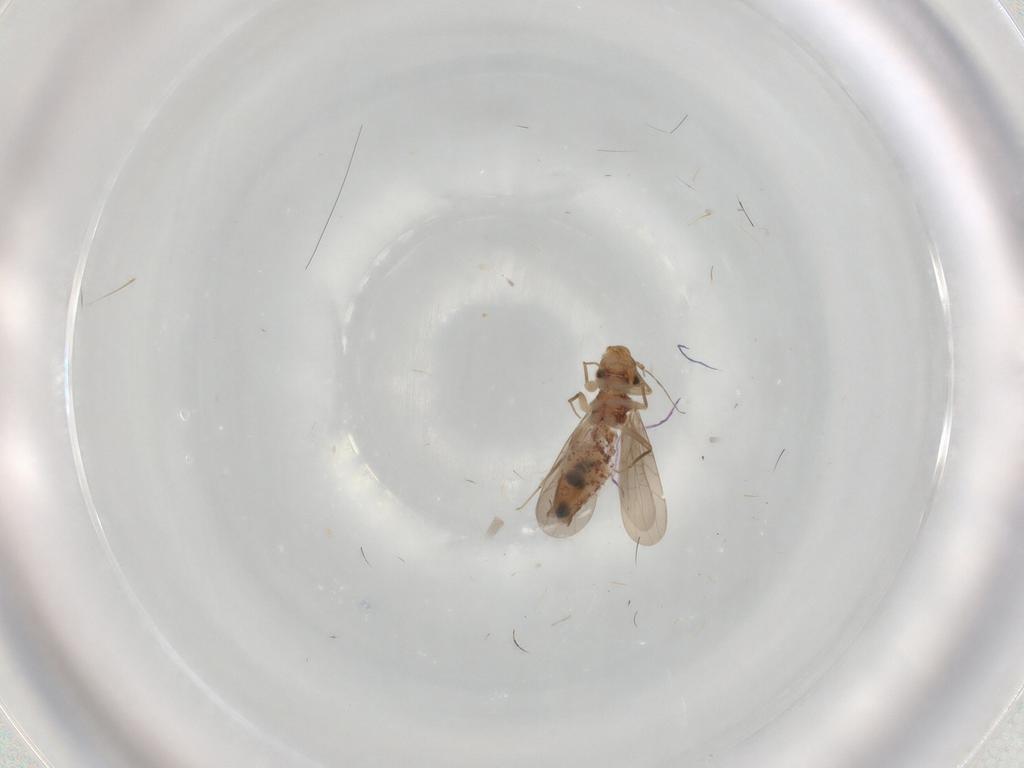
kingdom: Animalia
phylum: Arthropoda
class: Insecta
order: Psocodea
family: Lepidopsocidae
